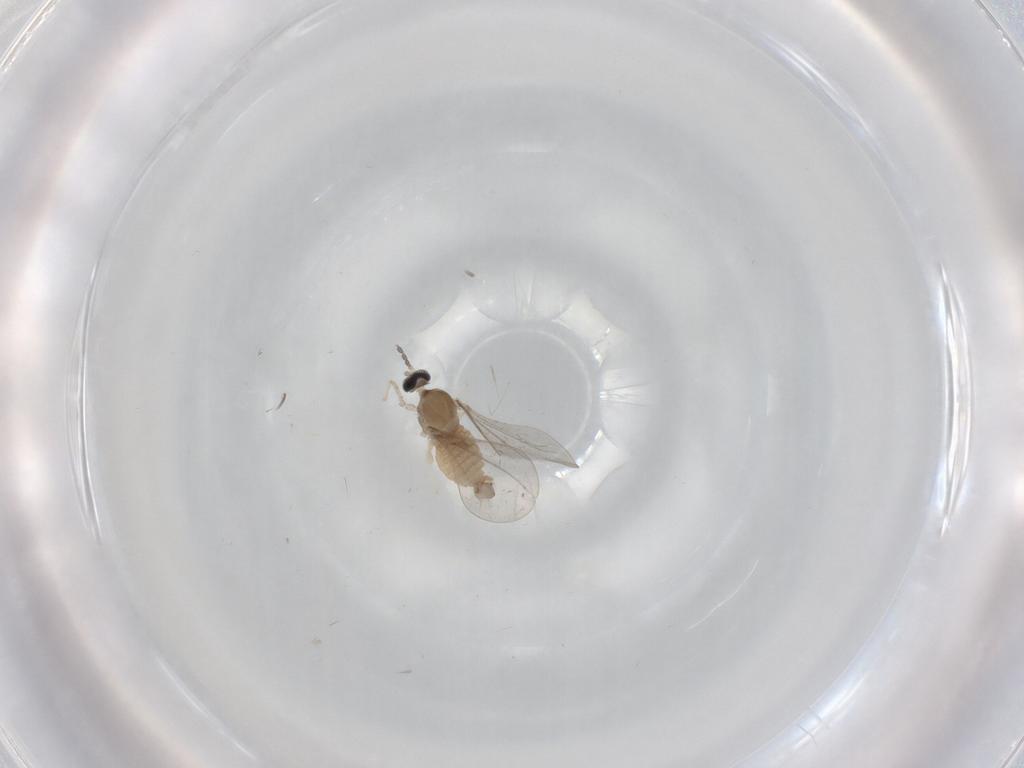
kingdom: Animalia
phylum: Arthropoda
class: Insecta
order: Diptera
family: Cecidomyiidae
